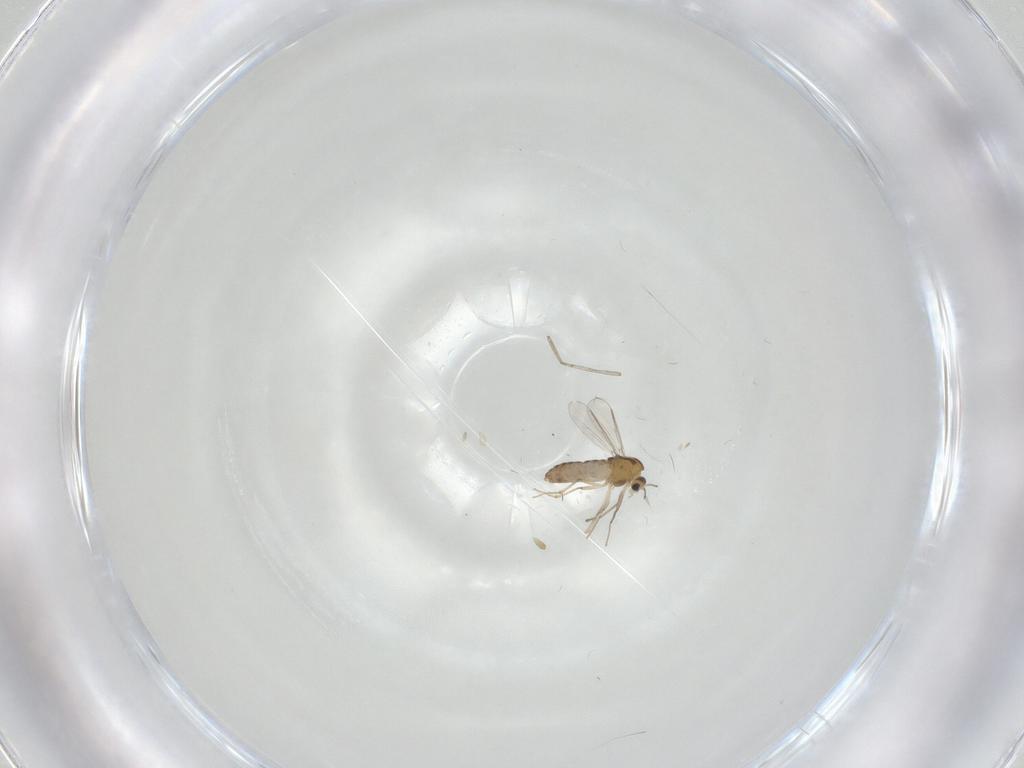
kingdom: Animalia
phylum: Arthropoda
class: Insecta
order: Diptera
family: Chironomidae
